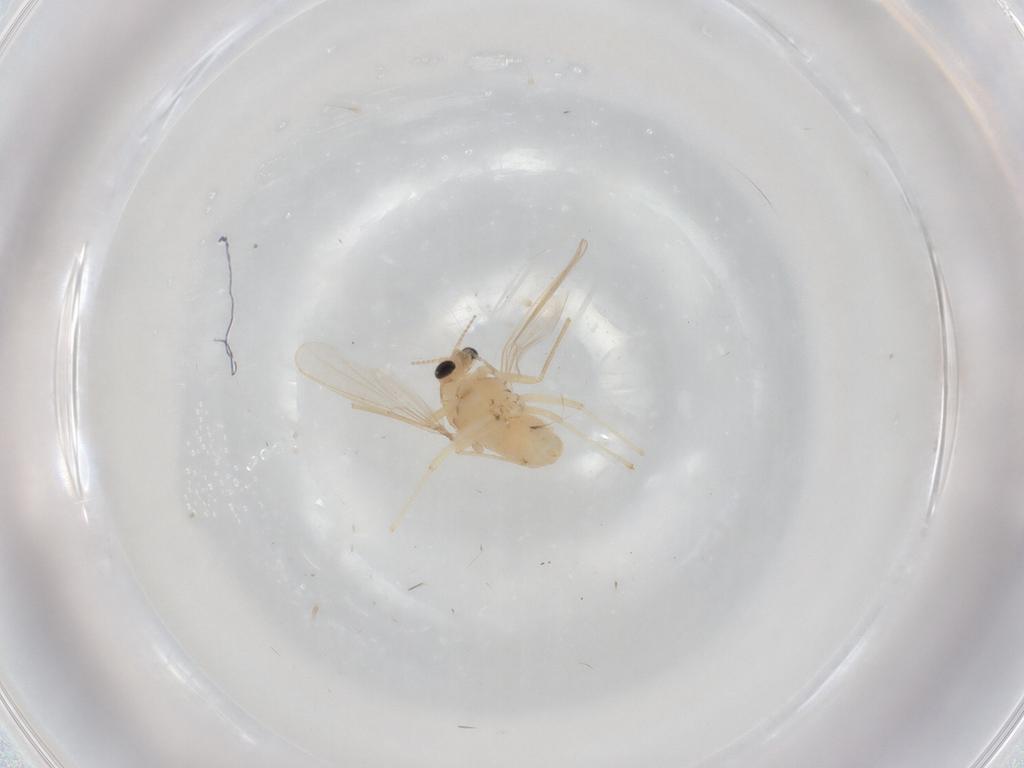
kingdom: Animalia
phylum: Arthropoda
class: Insecta
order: Diptera
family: Chironomidae
